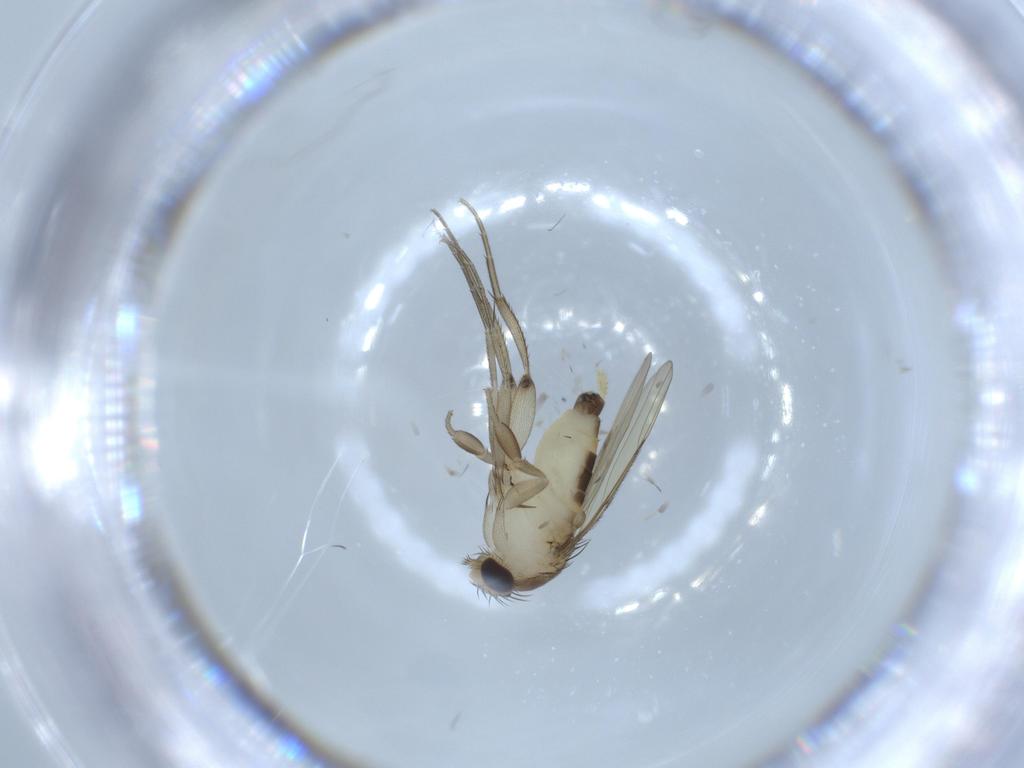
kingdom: Animalia
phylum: Arthropoda
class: Insecta
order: Diptera
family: Phoridae
